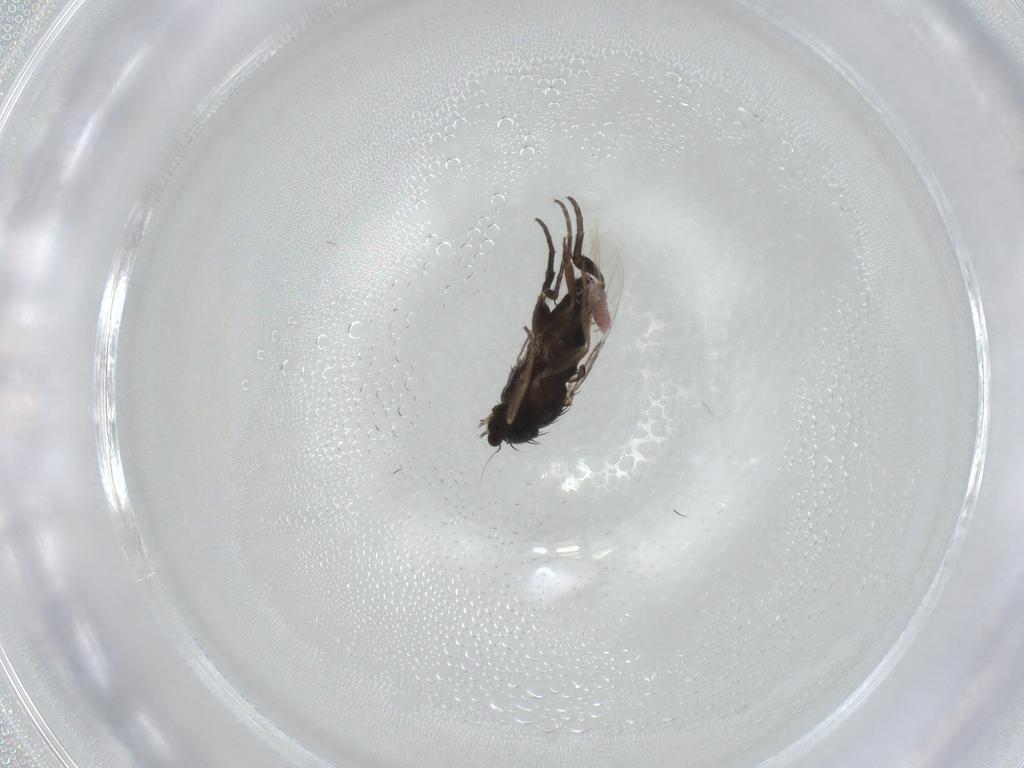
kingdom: Animalia
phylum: Arthropoda
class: Insecta
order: Diptera
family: Phoridae
